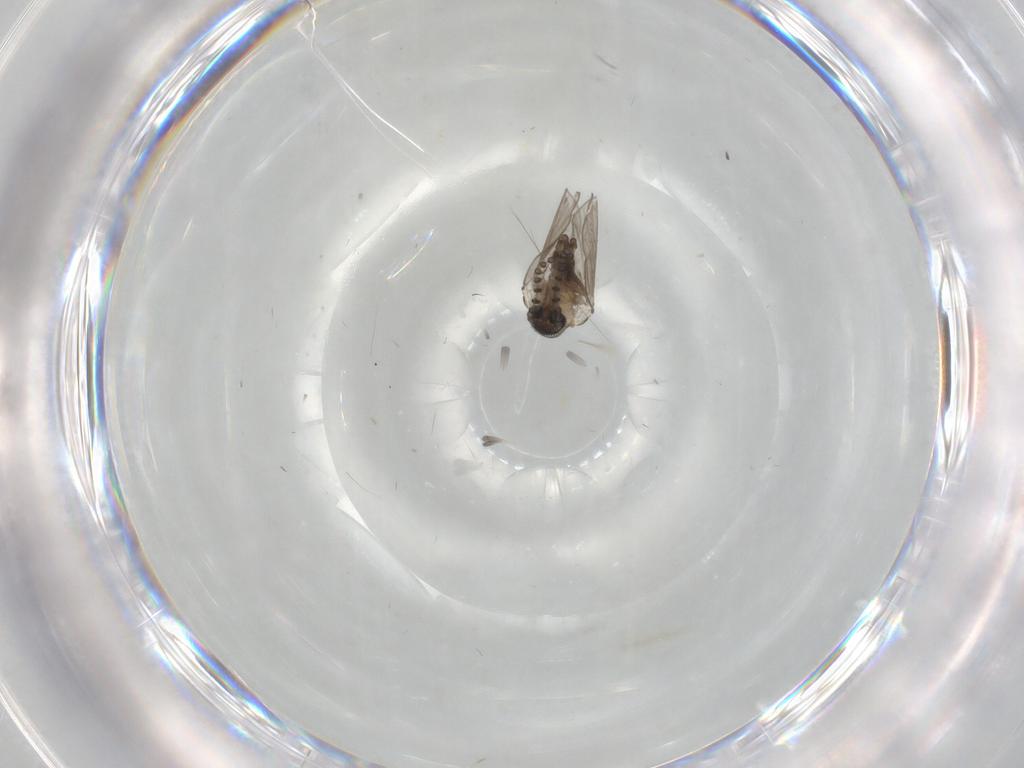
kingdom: Animalia
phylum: Arthropoda
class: Insecta
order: Diptera
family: Psychodidae
